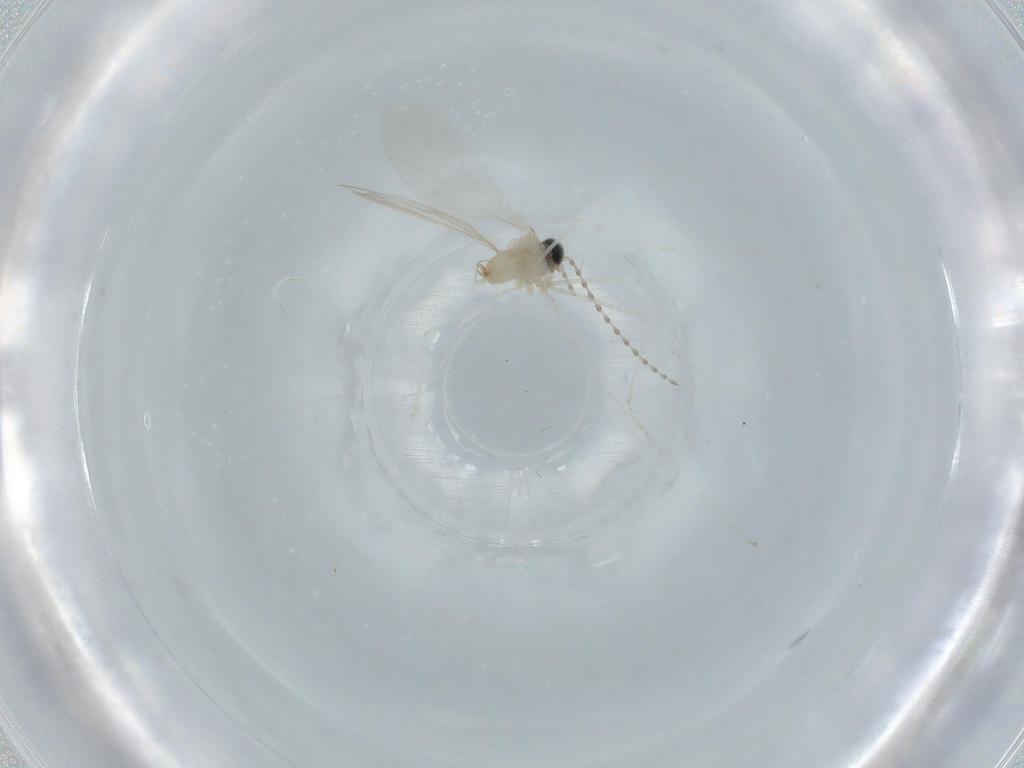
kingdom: Animalia
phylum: Arthropoda
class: Insecta
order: Diptera
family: Cecidomyiidae
